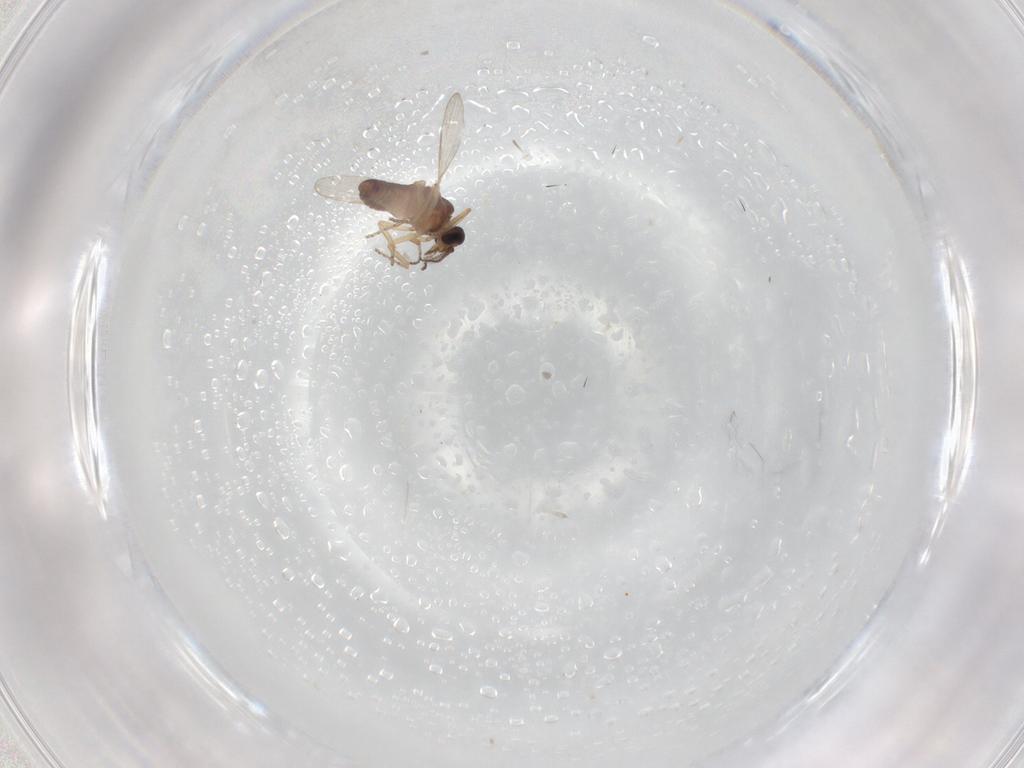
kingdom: Animalia
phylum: Arthropoda
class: Insecta
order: Diptera
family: Ceratopogonidae
